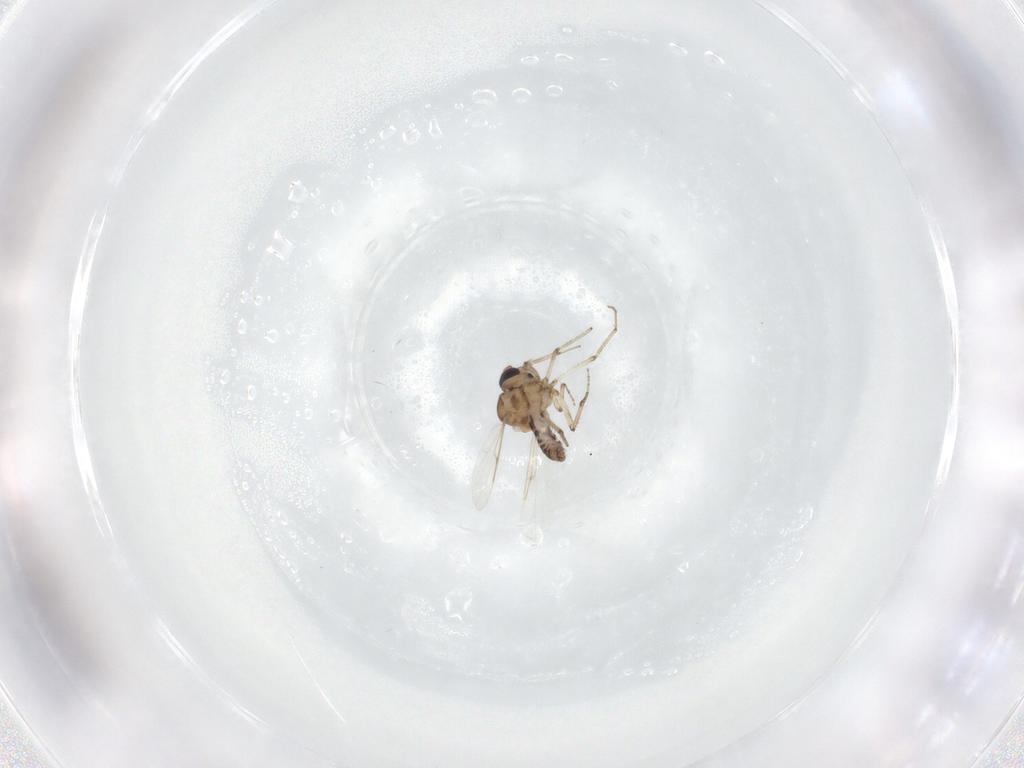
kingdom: Animalia
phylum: Arthropoda
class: Insecta
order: Diptera
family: Ceratopogonidae
